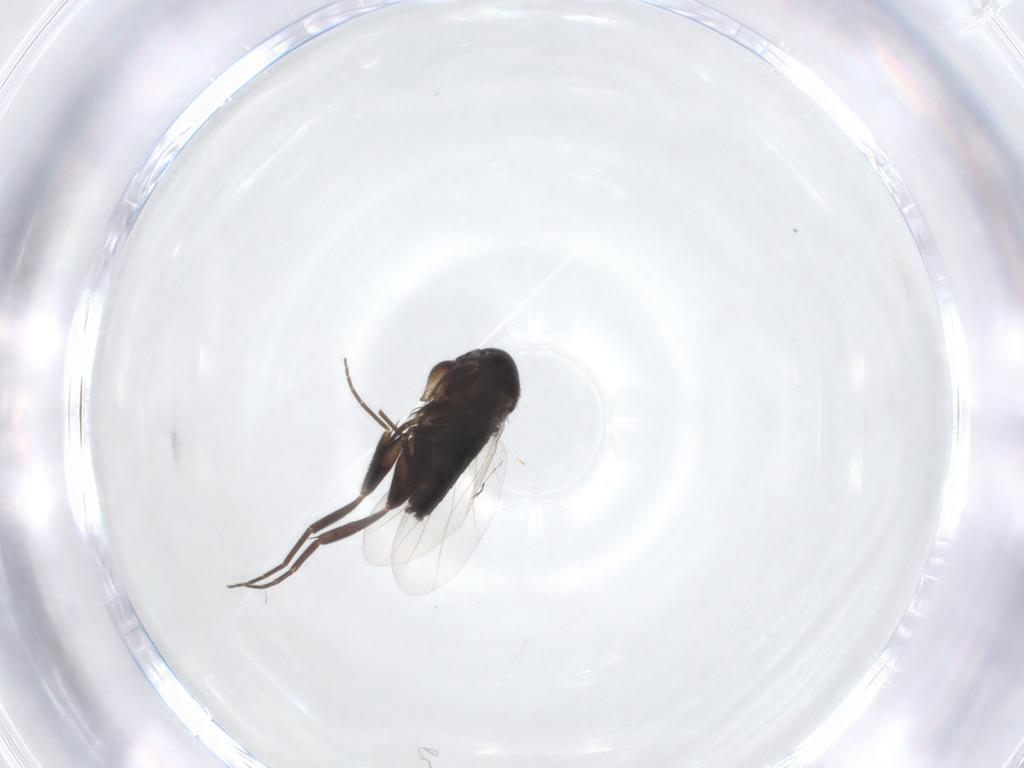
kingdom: Animalia
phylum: Arthropoda
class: Insecta
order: Diptera
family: Phoridae
